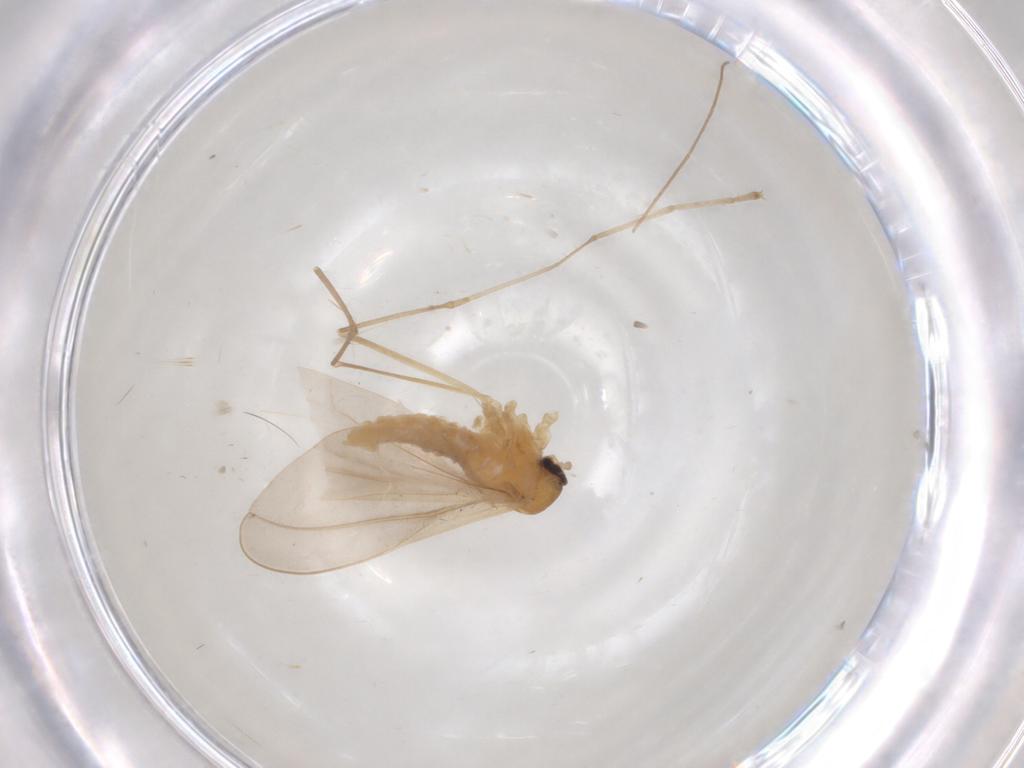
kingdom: Animalia
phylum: Arthropoda
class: Insecta
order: Diptera
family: Cecidomyiidae
